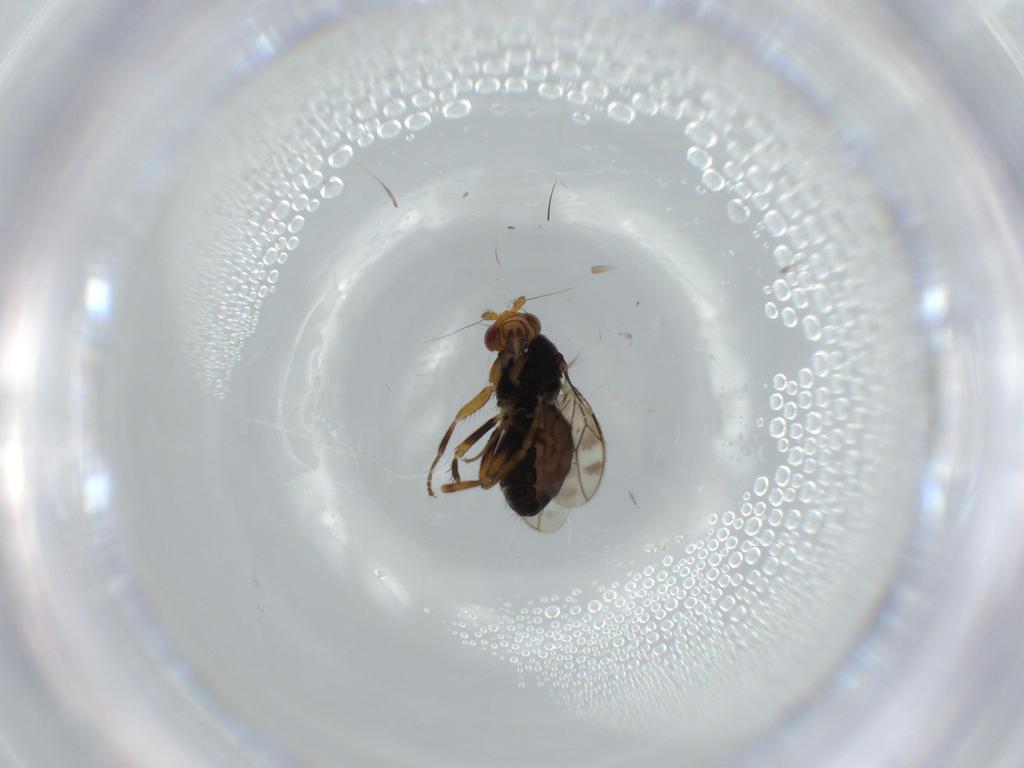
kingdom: Animalia
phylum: Arthropoda
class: Insecta
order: Diptera
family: Sphaeroceridae
